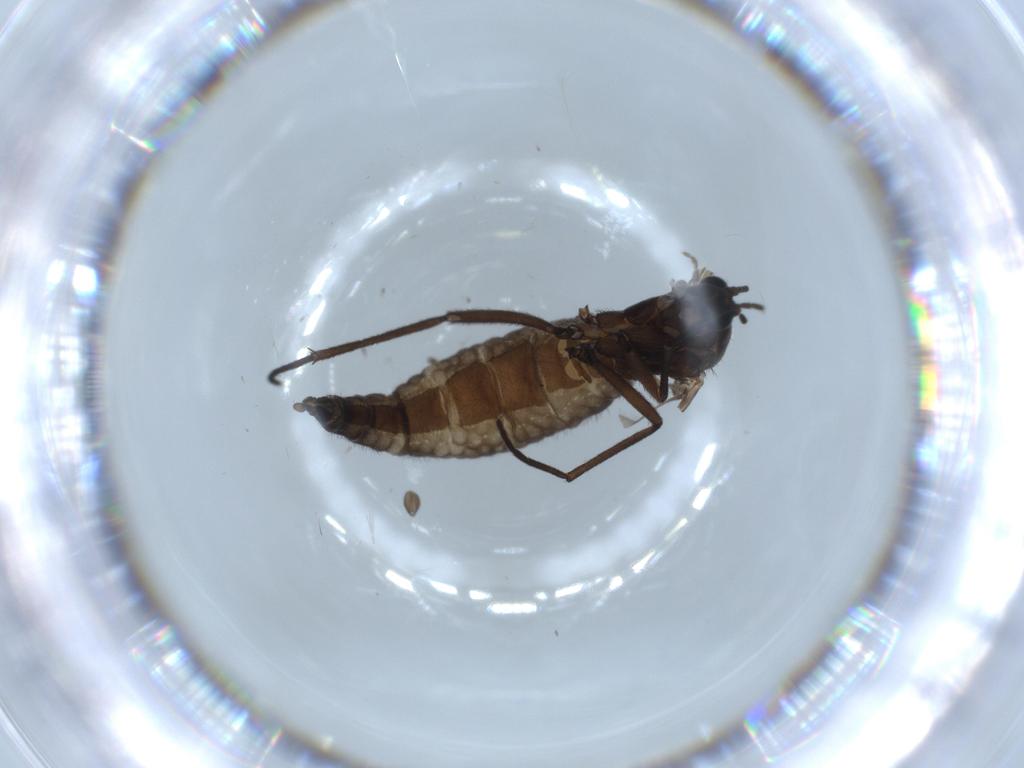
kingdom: Animalia
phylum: Arthropoda
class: Insecta
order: Diptera
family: Sciaridae
